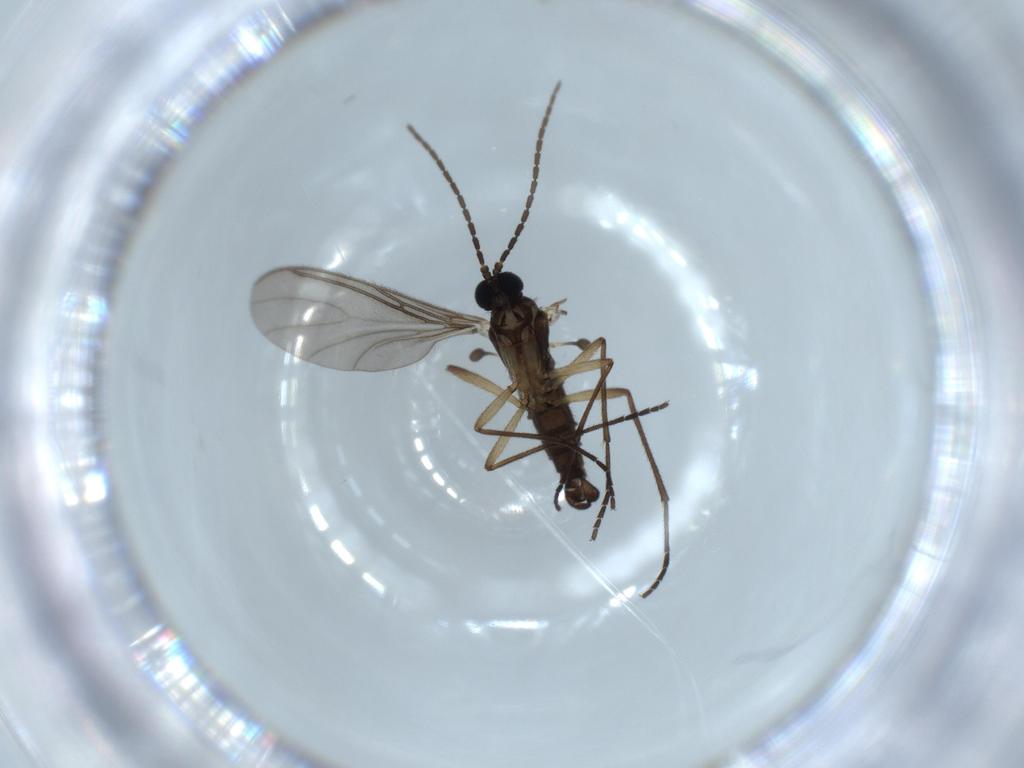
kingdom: Animalia
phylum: Arthropoda
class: Insecta
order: Diptera
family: Sciaridae
